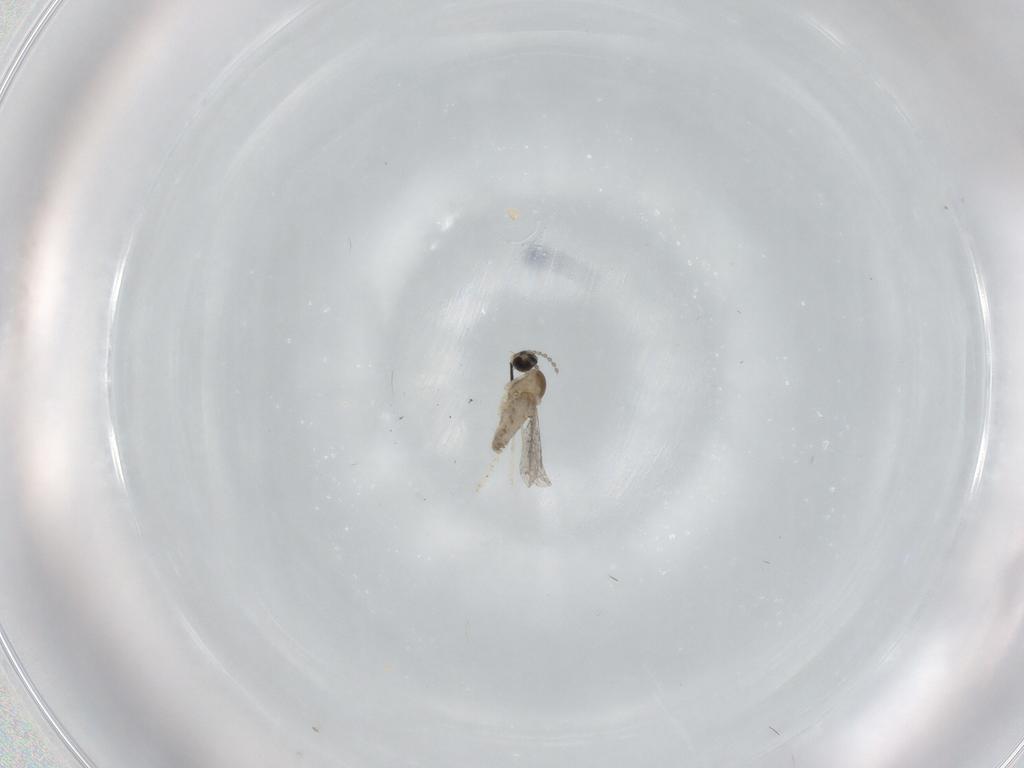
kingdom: Animalia
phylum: Arthropoda
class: Insecta
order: Diptera
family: Cecidomyiidae
